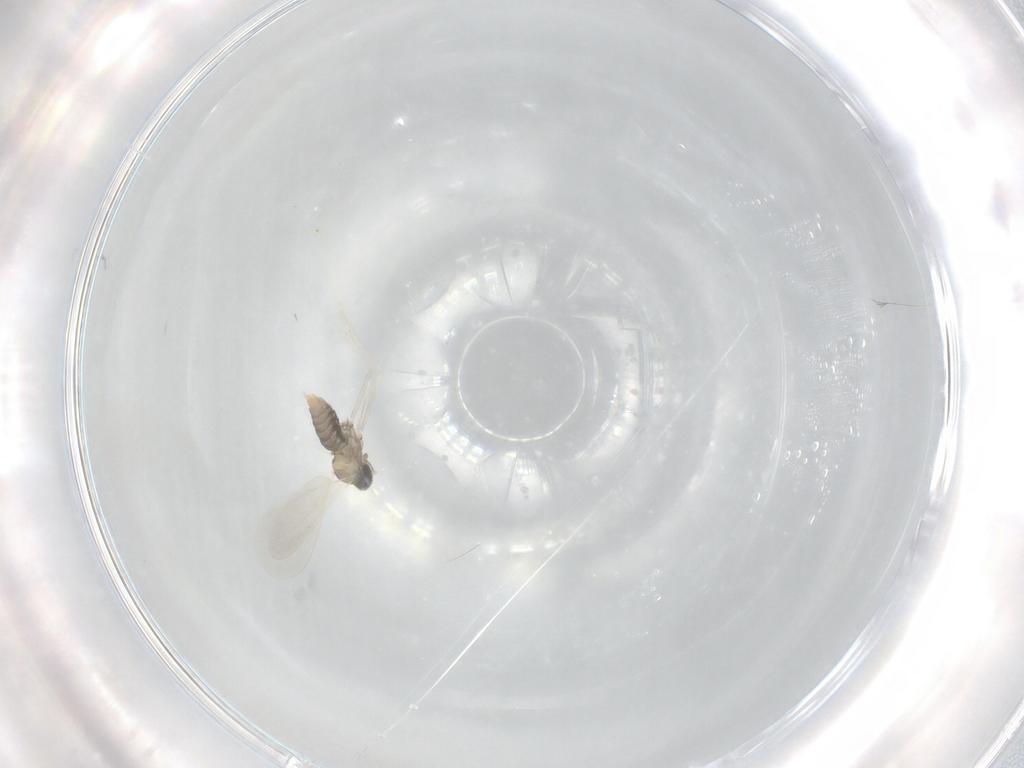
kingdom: Animalia
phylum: Arthropoda
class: Insecta
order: Diptera
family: Cecidomyiidae
